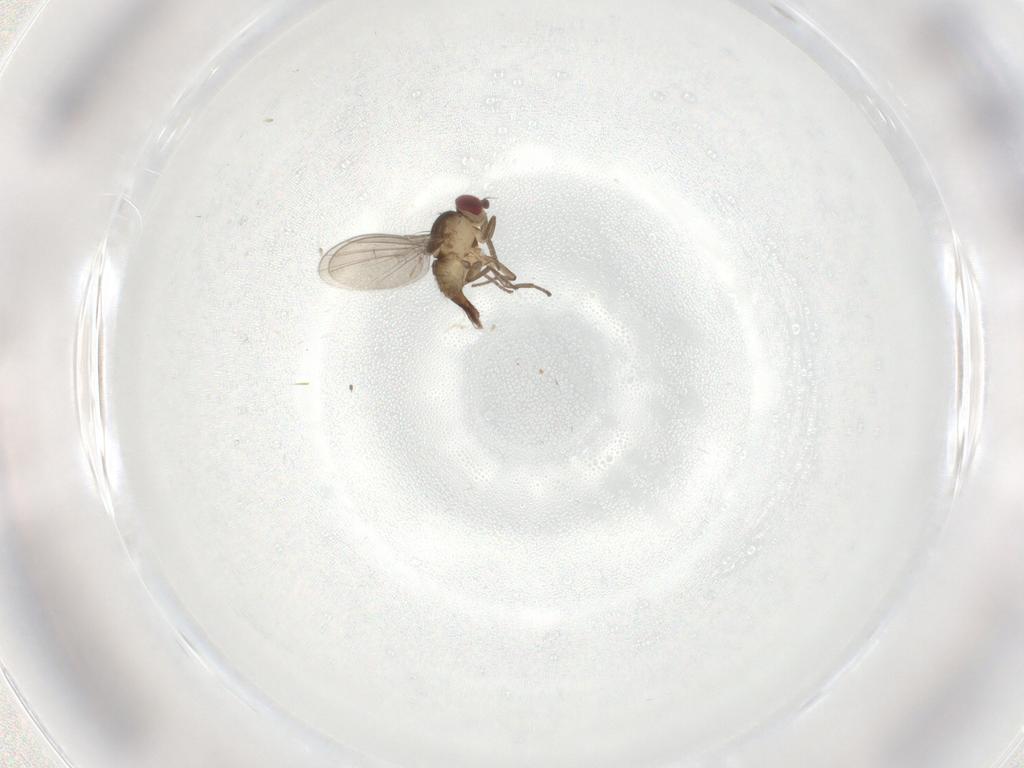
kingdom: Animalia
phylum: Arthropoda
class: Insecta
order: Diptera
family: Agromyzidae
